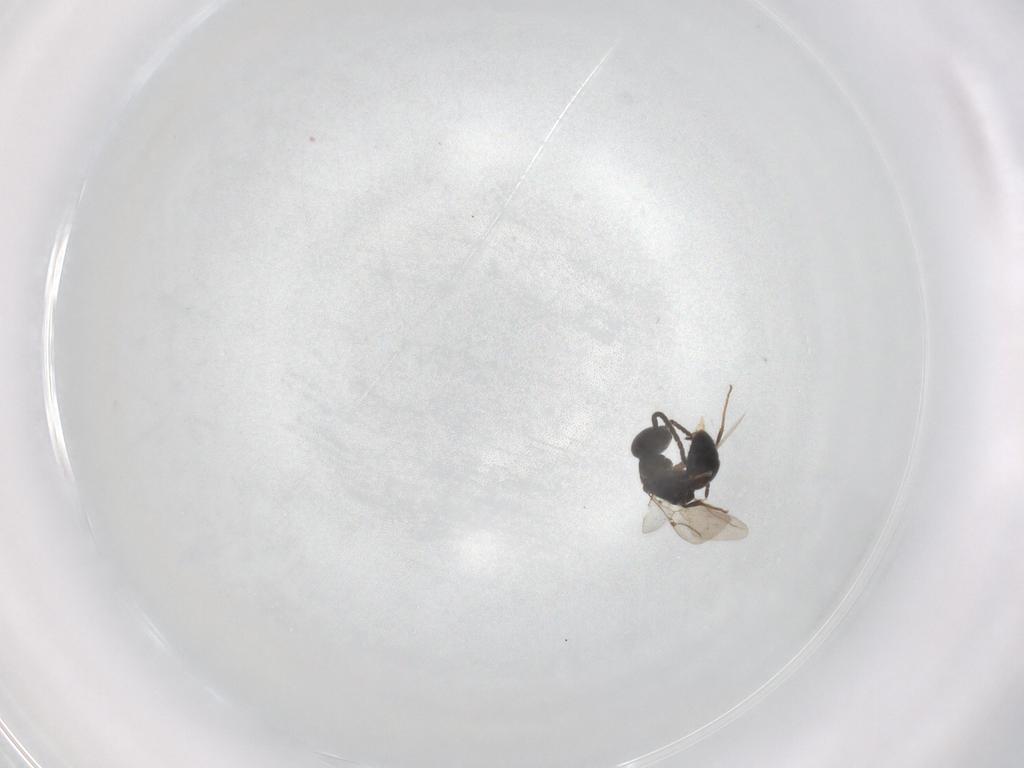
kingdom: Animalia
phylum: Arthropoda
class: Insecta
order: Hymenoptera
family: Bethylidae
